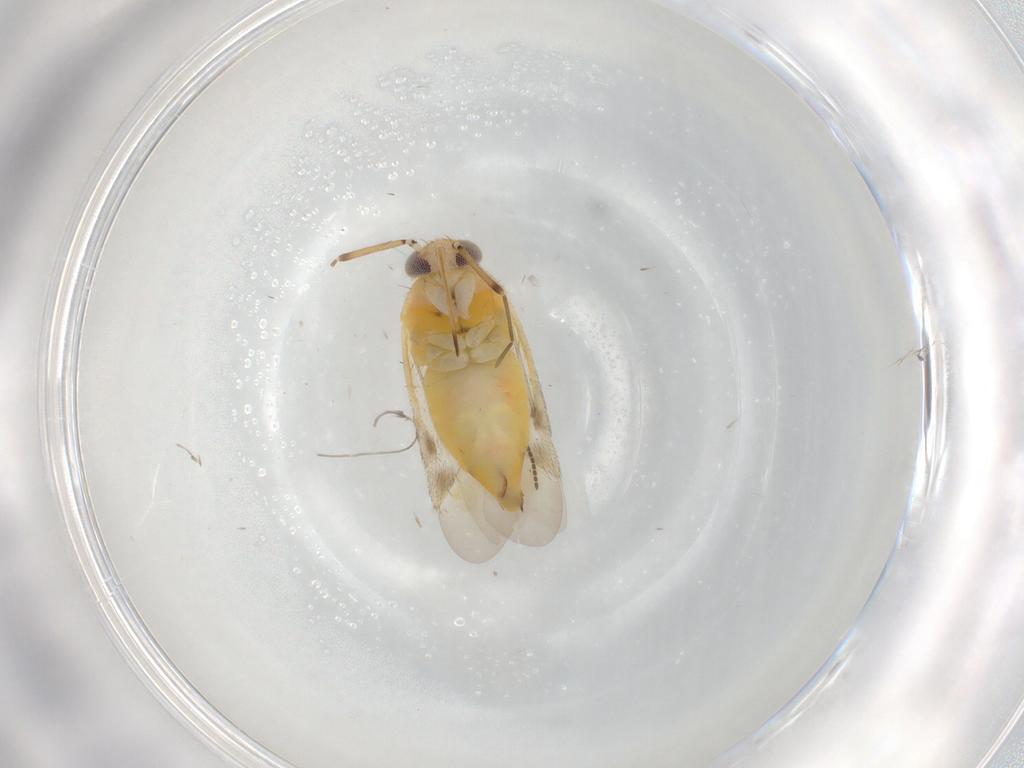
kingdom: Animalia
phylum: Arthropoda
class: Insecta
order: Hemiptera
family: Miridae
